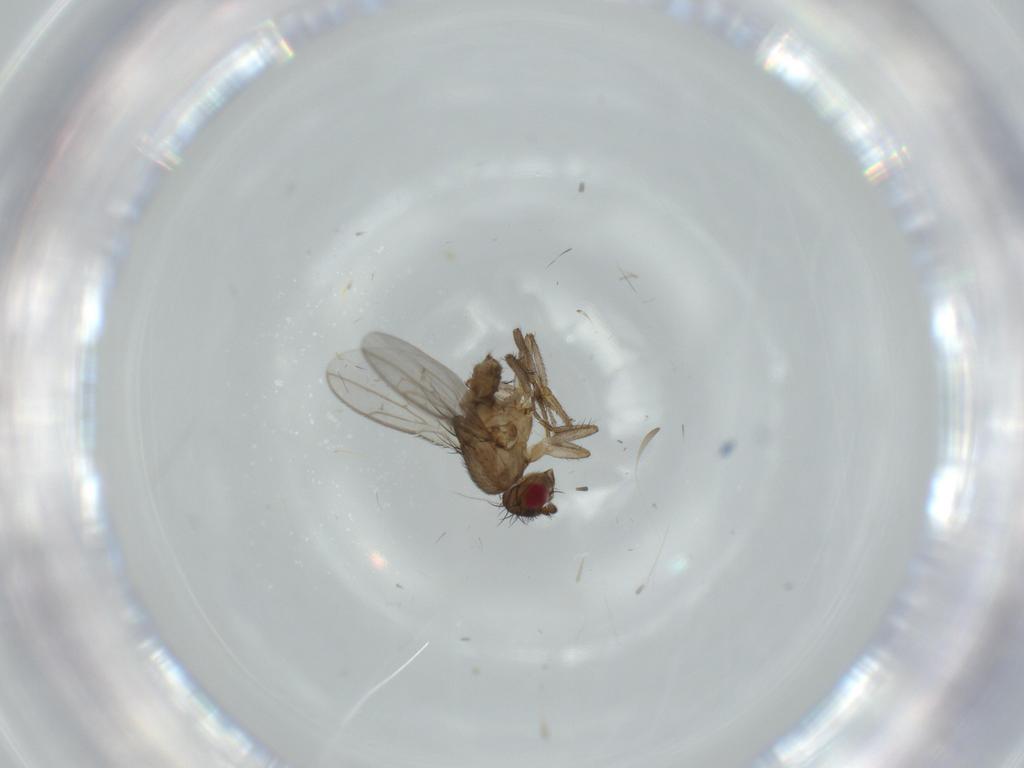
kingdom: Animalia
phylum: Arthropoda
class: Insecta
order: Diptera
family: Sphaeroceridae
